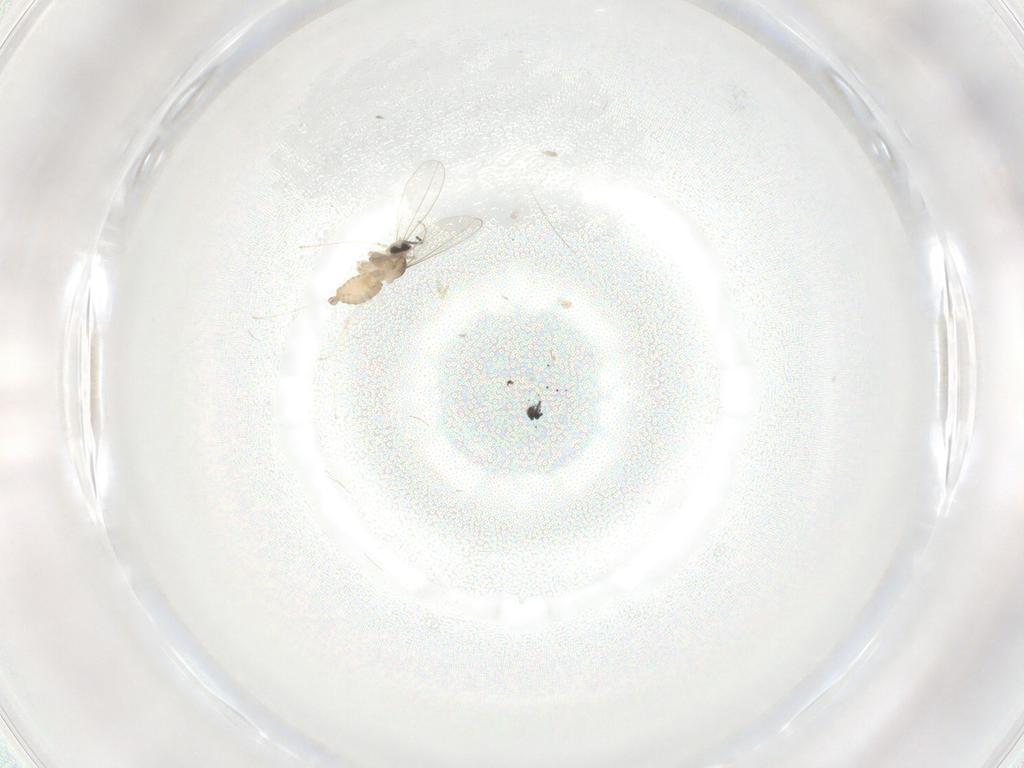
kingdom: Animalia
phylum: Arthropoda
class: Insecta
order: Diptera
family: Cecidomyiidae
